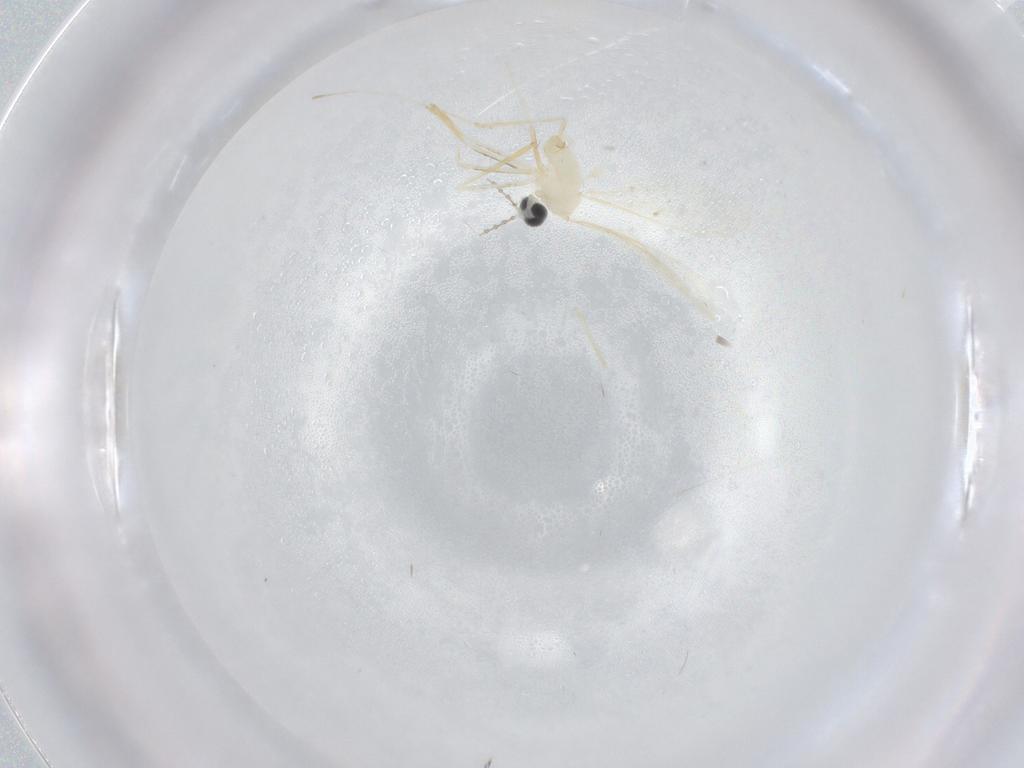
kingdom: Animalia
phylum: Arthropoda
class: Insecta
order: Diptera
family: Cecidomyiidae
